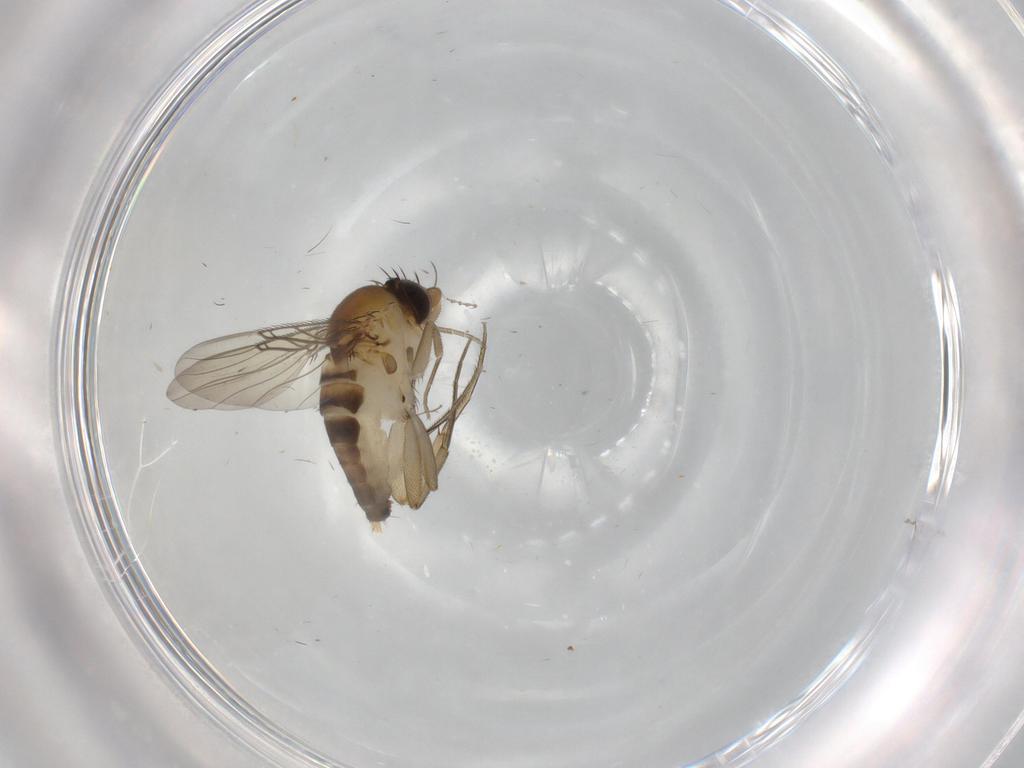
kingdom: Animalia
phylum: Arthropoda
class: Insecta
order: Diptera
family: Phoridae
